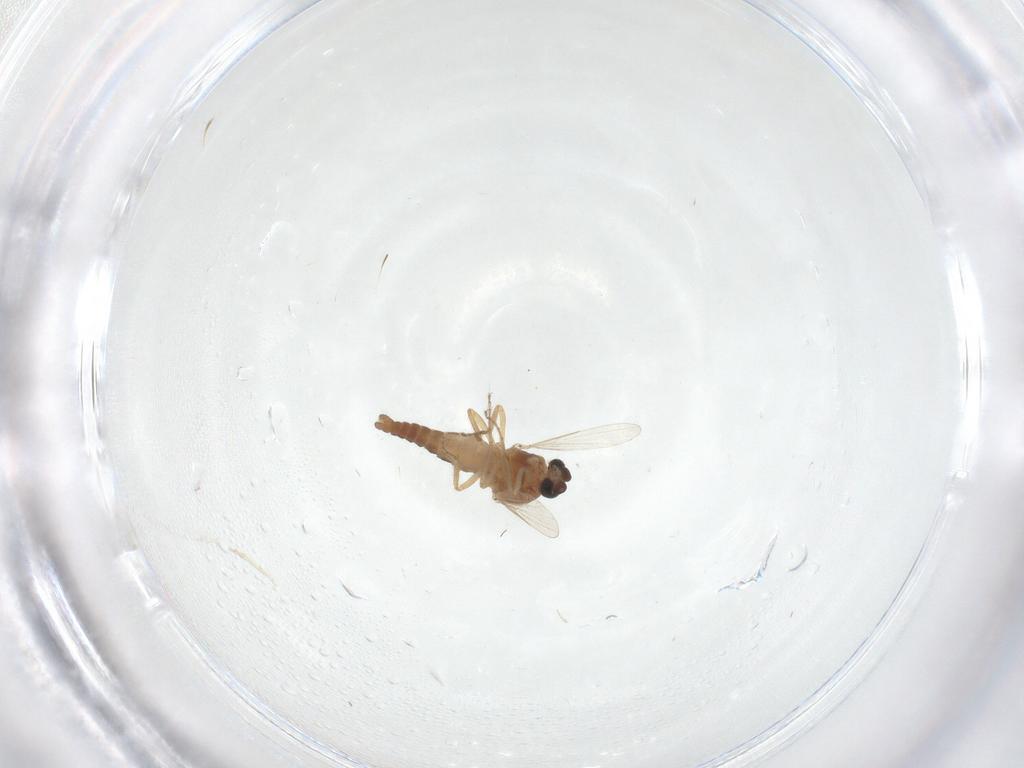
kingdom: Animalia
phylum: Arthropoda
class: Insecta
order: Diptera
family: Ceratopogonidae
